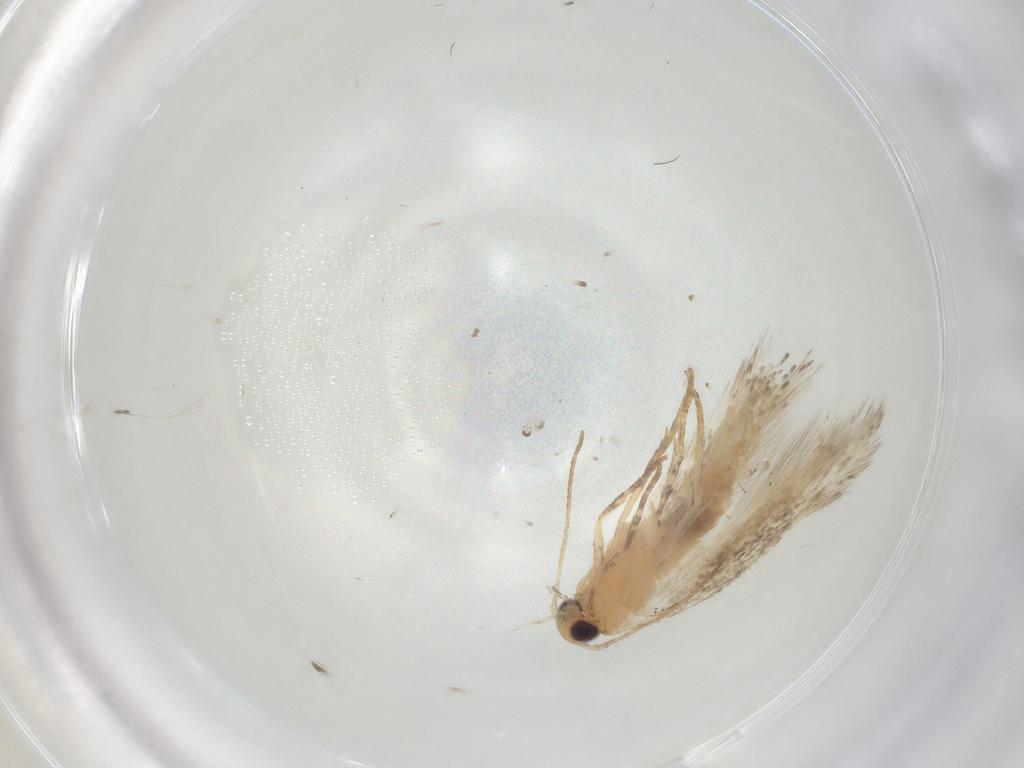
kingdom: Animalia
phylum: Arthropoda
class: Insecta
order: Lepidoptera
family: Gelechiidae
